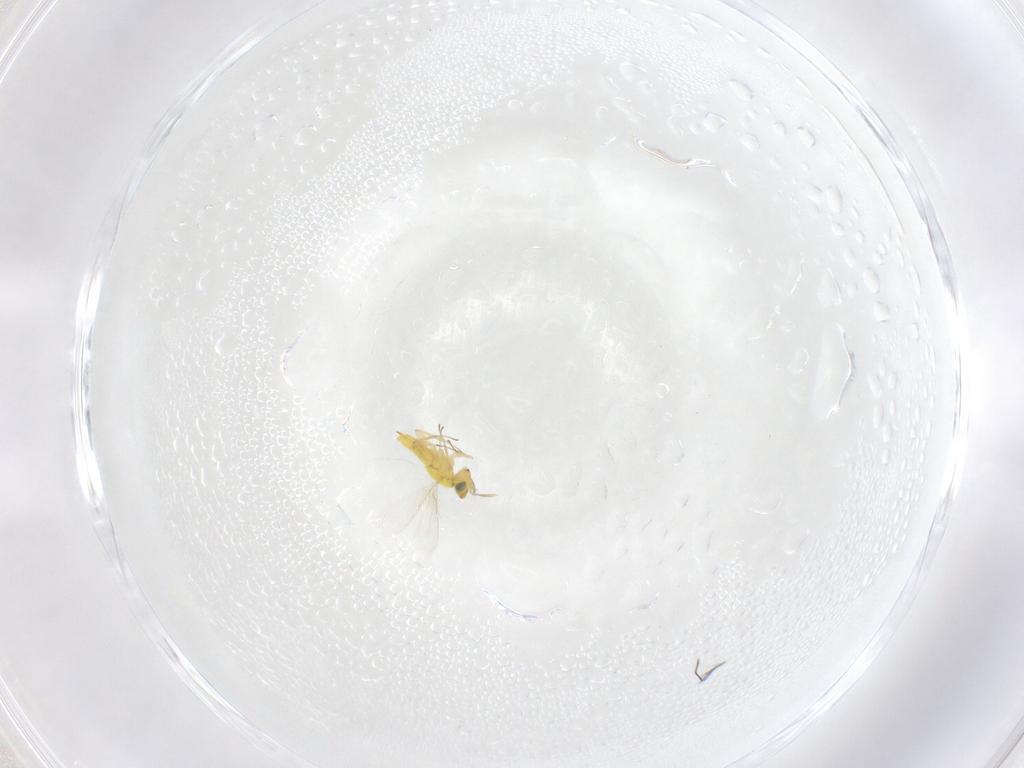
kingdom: Animalia
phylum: Arthropoda
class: Insecta
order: Hymenoptera
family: Aphelinidae
